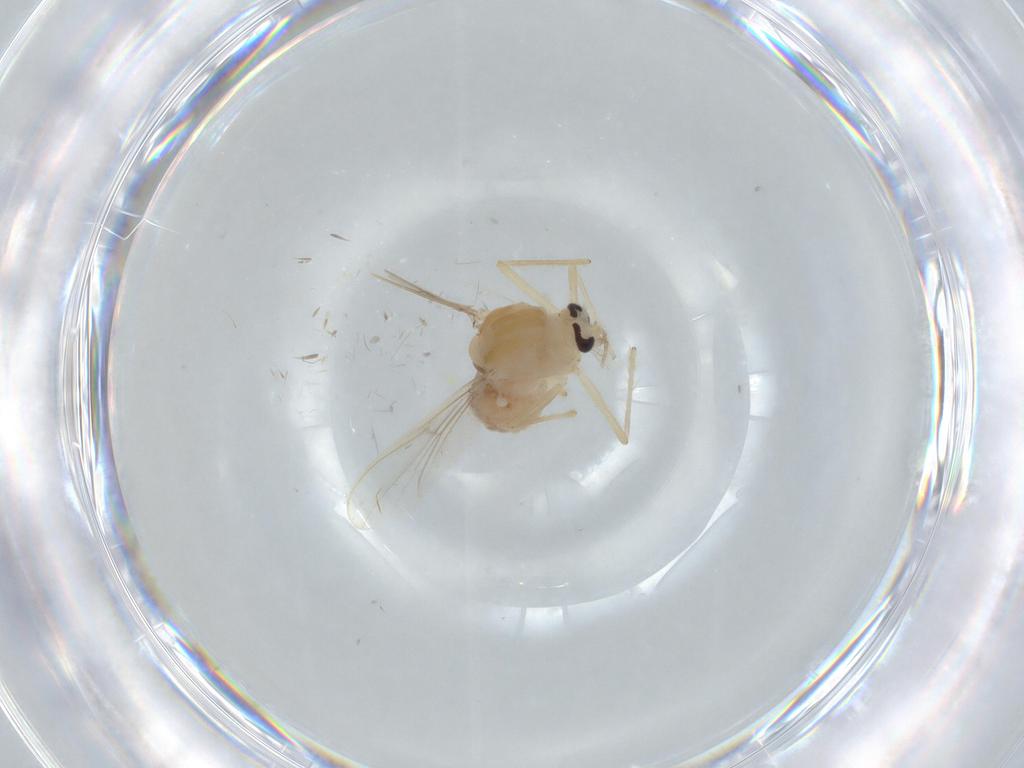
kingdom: Animalia
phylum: Arthropoda
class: Insecta
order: Diptera
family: Chironomidae
